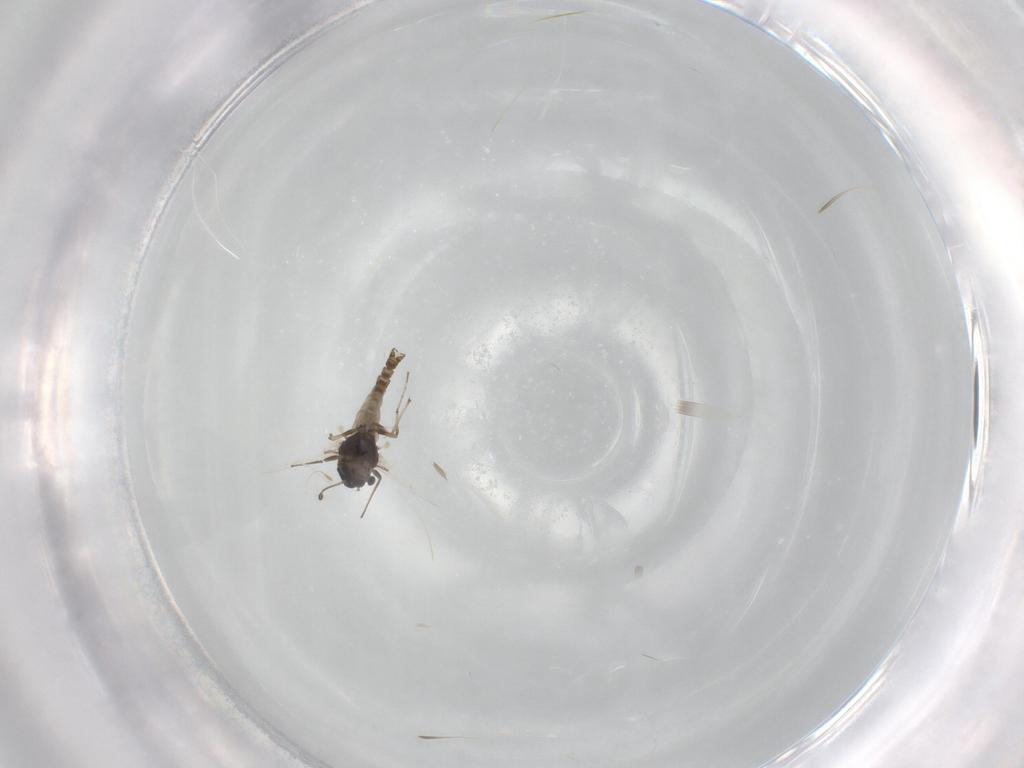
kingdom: Animalia
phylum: Arthropoda
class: Insecta
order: Diptera
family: Chironomidae
